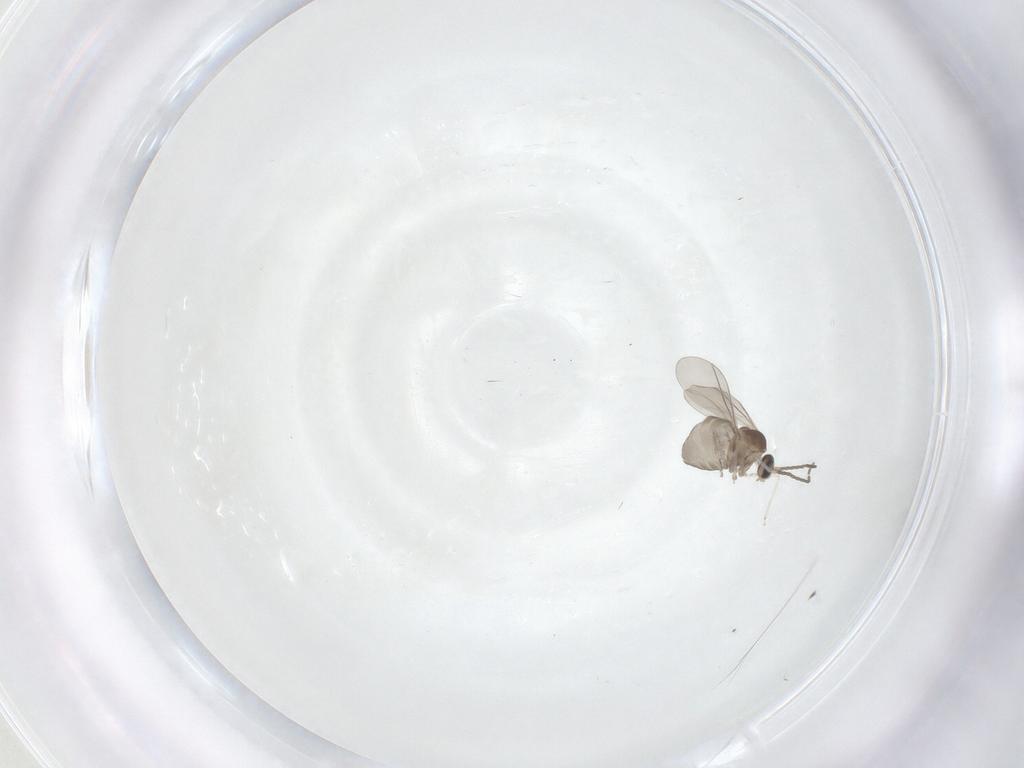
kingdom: Animalia
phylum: Arthropoda
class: Insecta
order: Diptera
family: Cecidomyiidae
